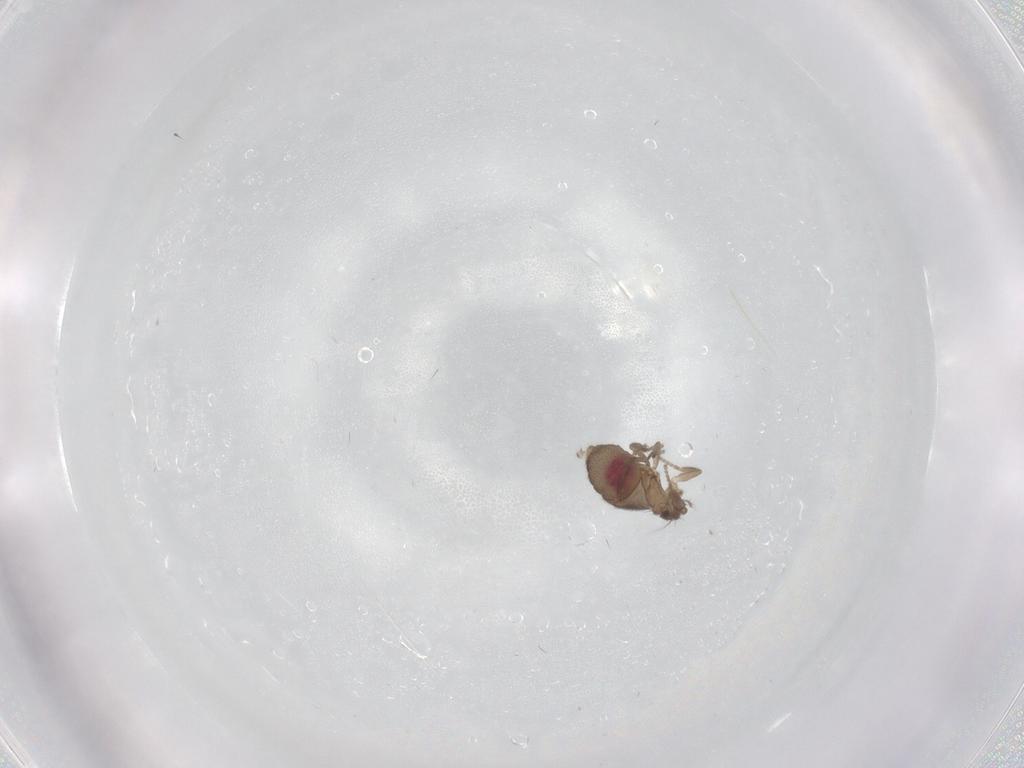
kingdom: Animalia
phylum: Arthropoda
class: Insecta
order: Diptera
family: Phoridae
